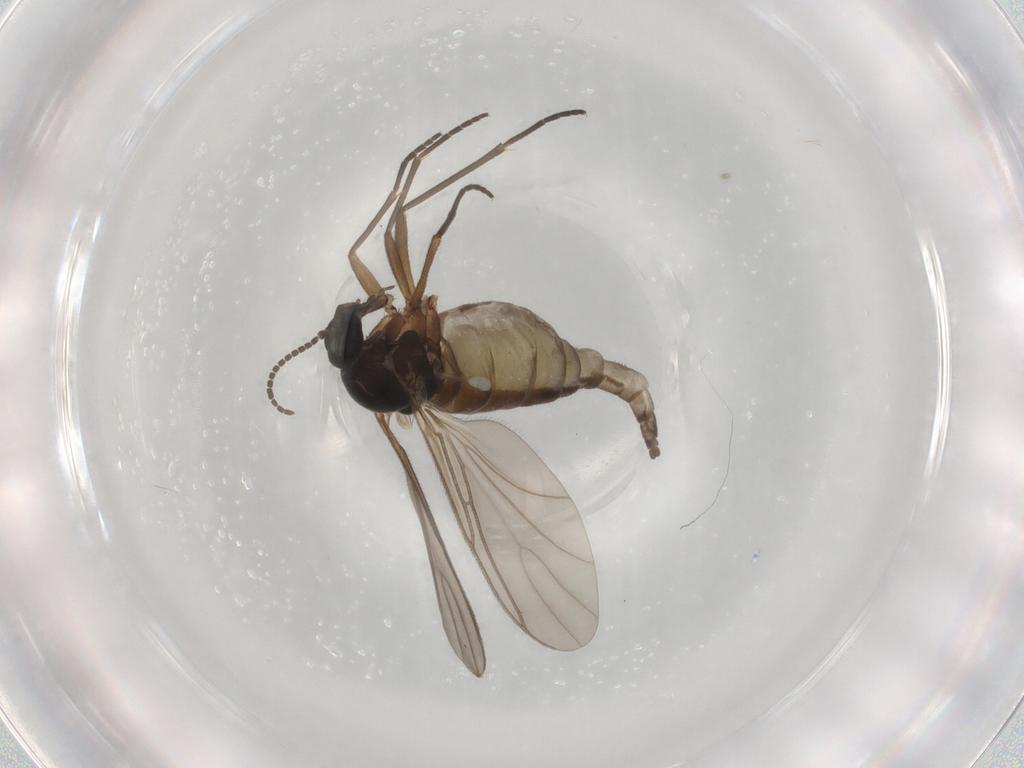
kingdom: Animalia
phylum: Arthropoda
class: Insecta
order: Diptera
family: Sciaridae
